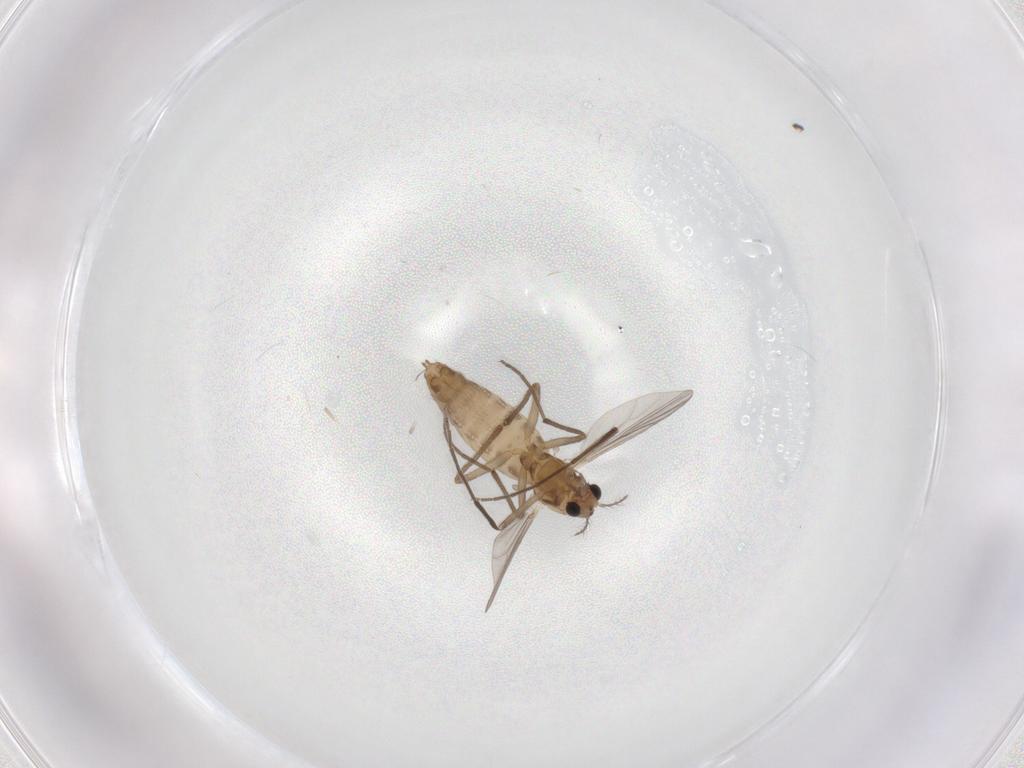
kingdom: Animalia
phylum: Arthropoda
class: Insecta
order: Diptera
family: Chironomidae
